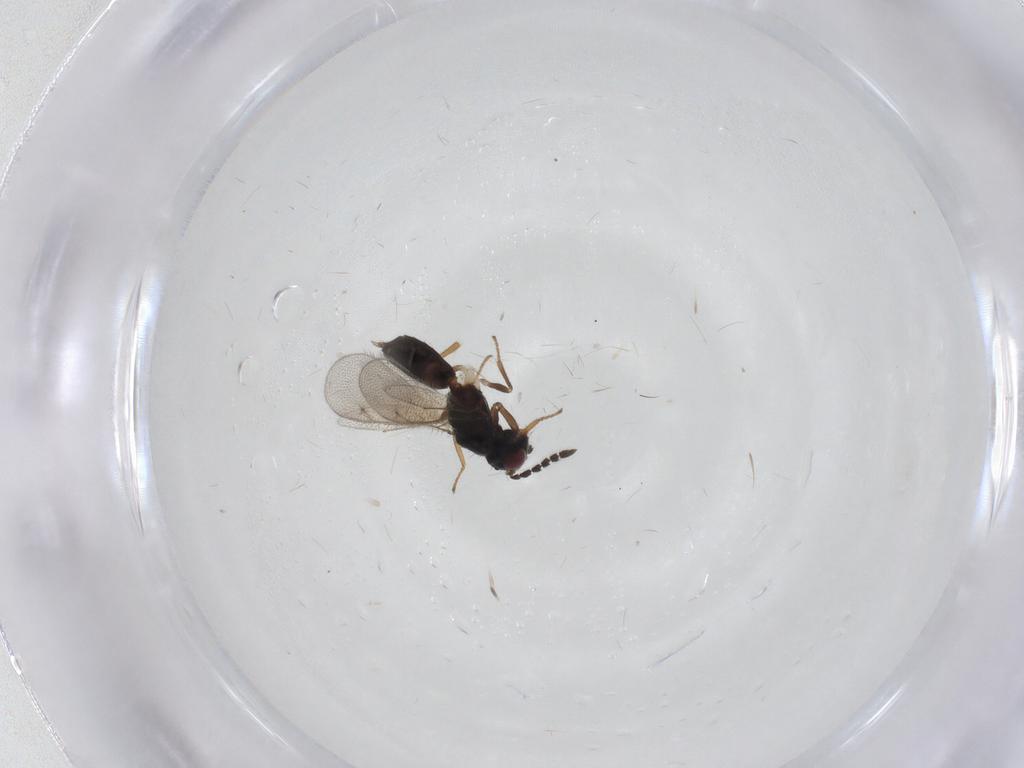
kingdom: Animalia
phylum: Arthropoda
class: Insecta
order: Hymenoptera
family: Eulophidae
